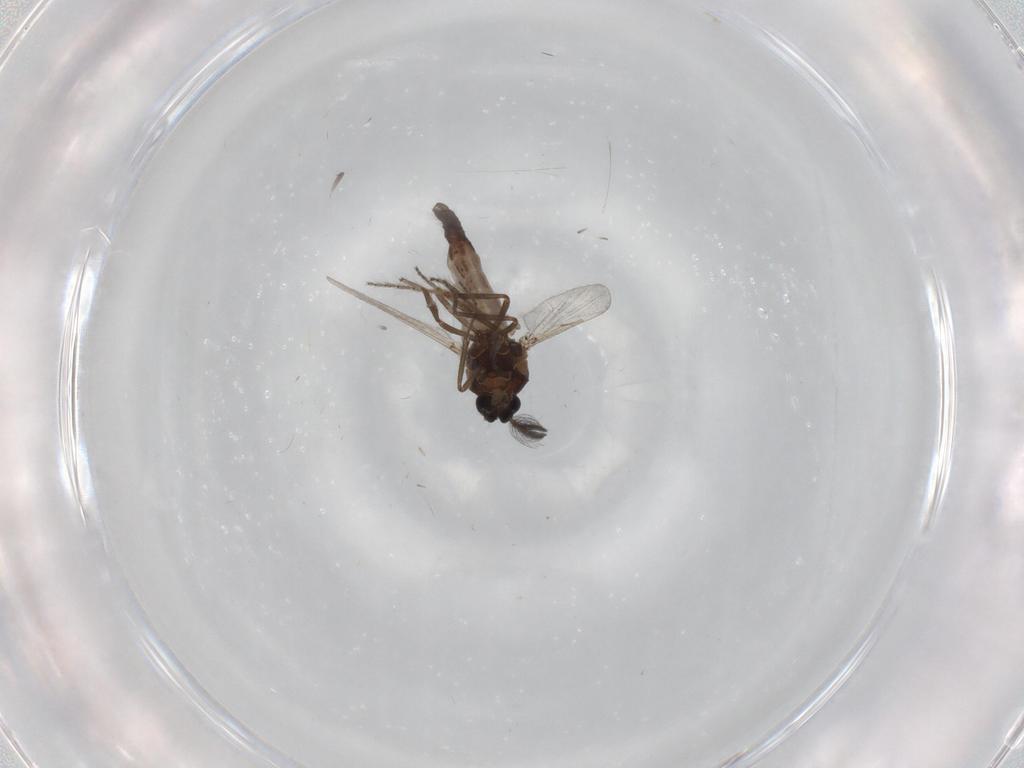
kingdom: Animalia
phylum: Arthropoda
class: Insecta
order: Diptera
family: Ceratopogonidae
